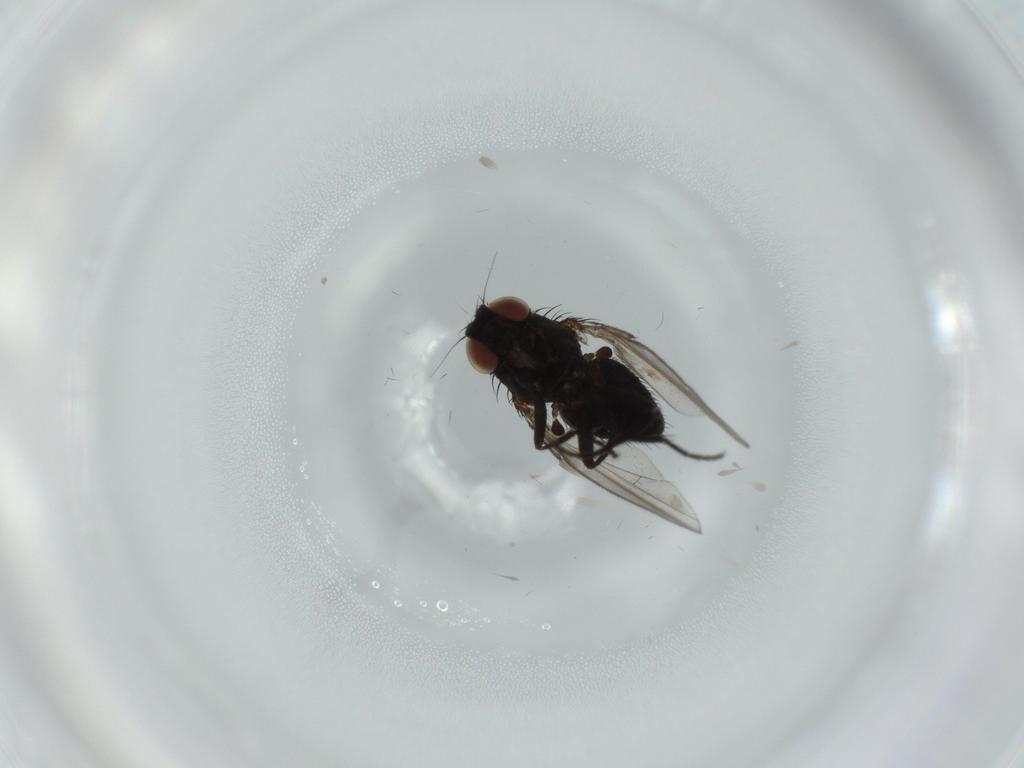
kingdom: Animalia
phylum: Arthropoda
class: Insecta
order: Diptera
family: Milichiidae
